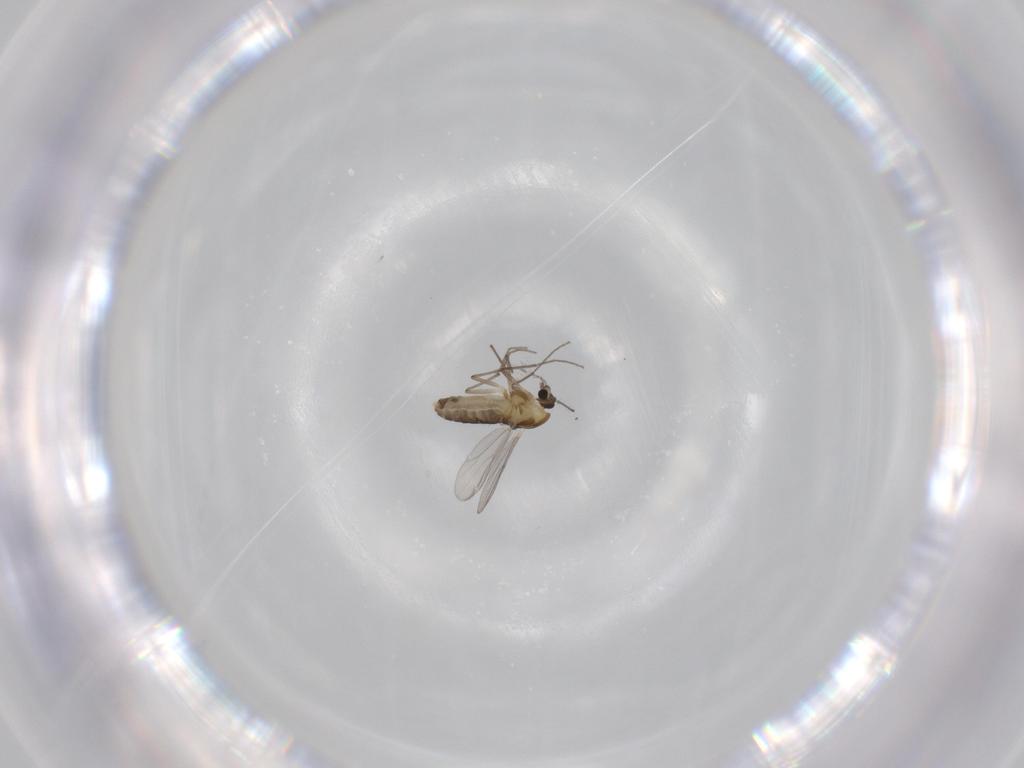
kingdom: Animalia
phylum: Arthropoda
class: Insecta
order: Diptera
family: Chironomidae
